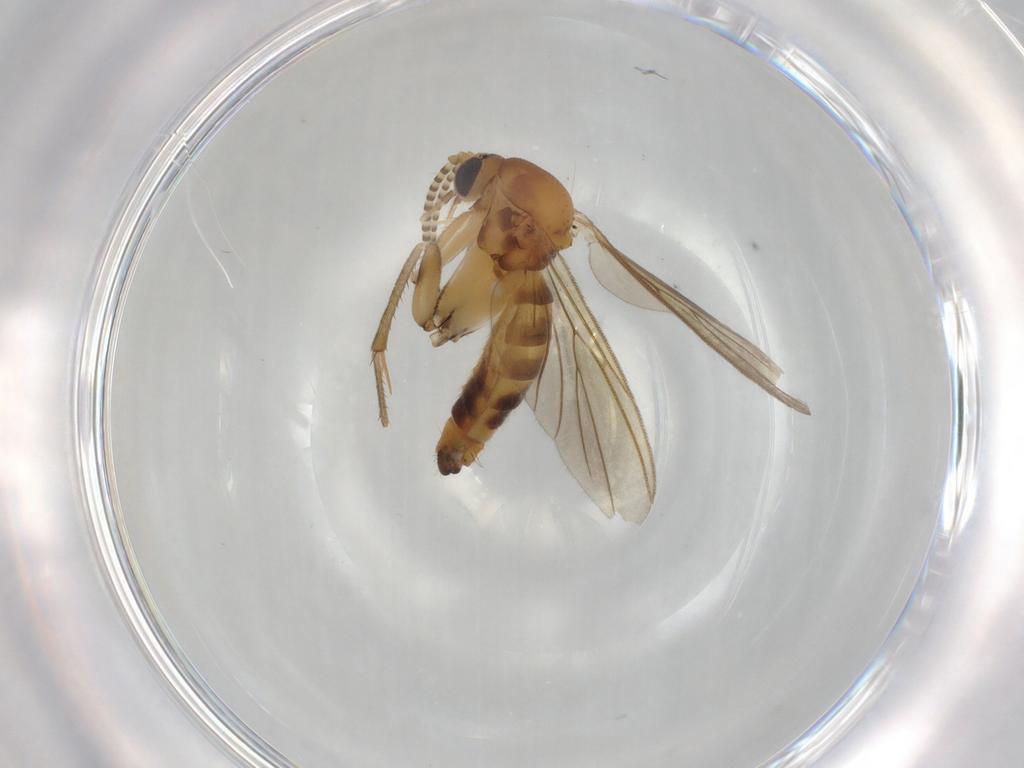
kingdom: Animalia
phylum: Arthropoda
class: Insecta
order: Diptera
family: Mycetophilidae
